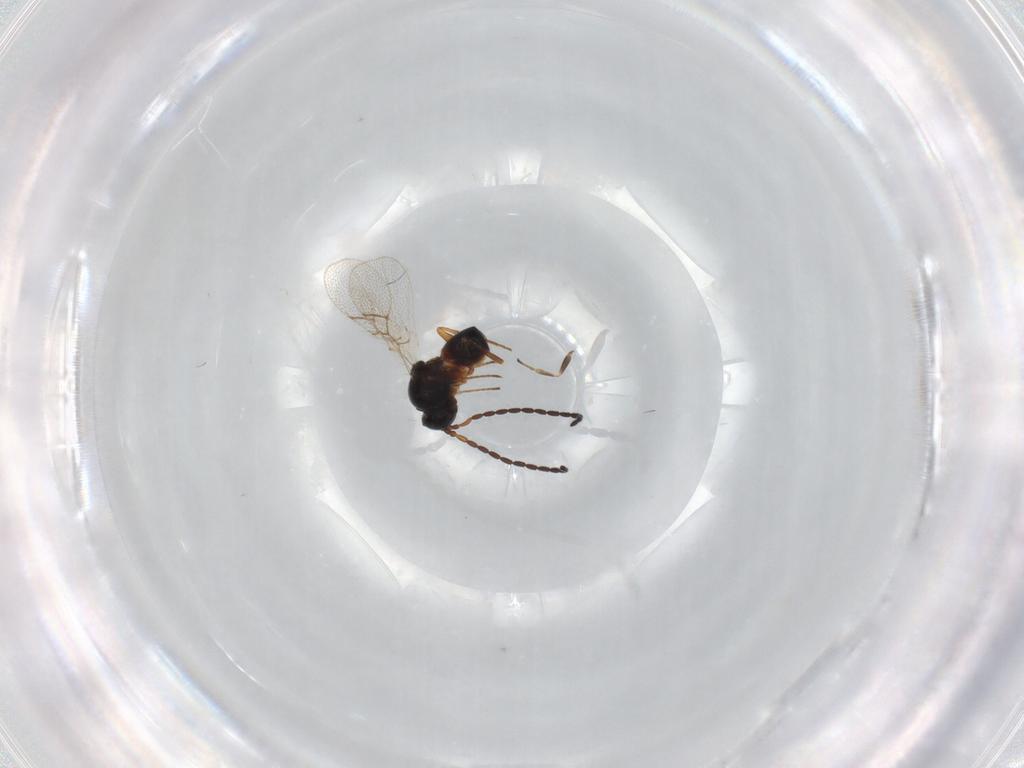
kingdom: Animalia
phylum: Arthropoda
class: Insecta
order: Hymenoptera
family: Figitidae
